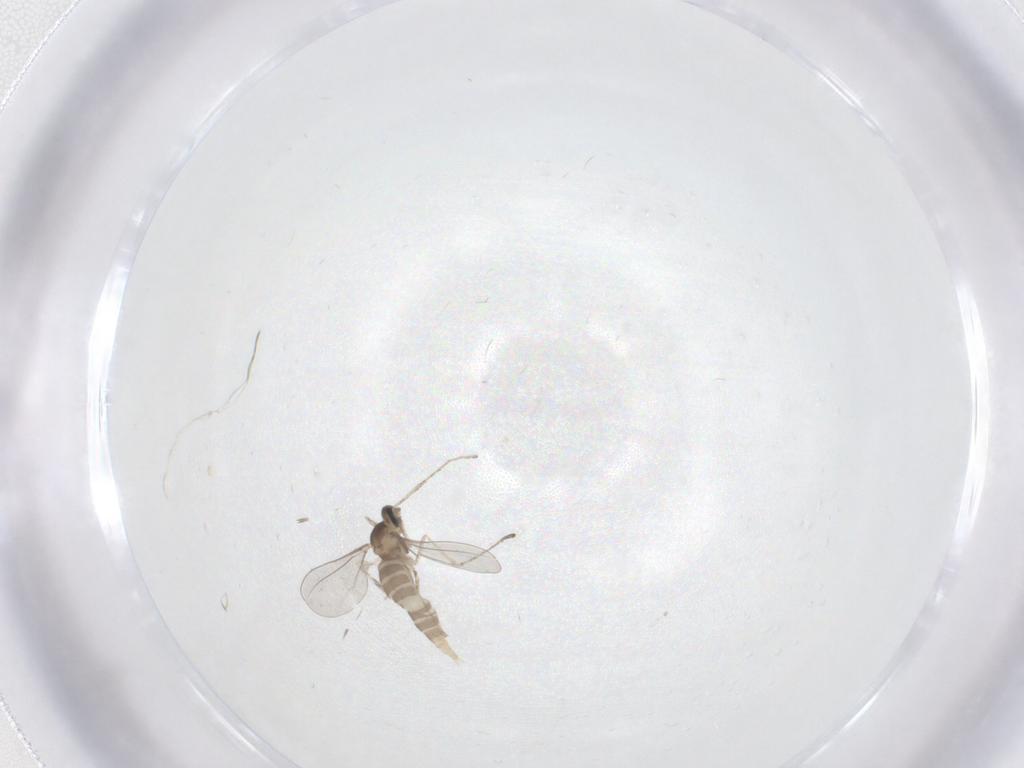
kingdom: Animalia
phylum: Arthropoda
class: Insecta
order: Diptera
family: Cecidomyiidae
